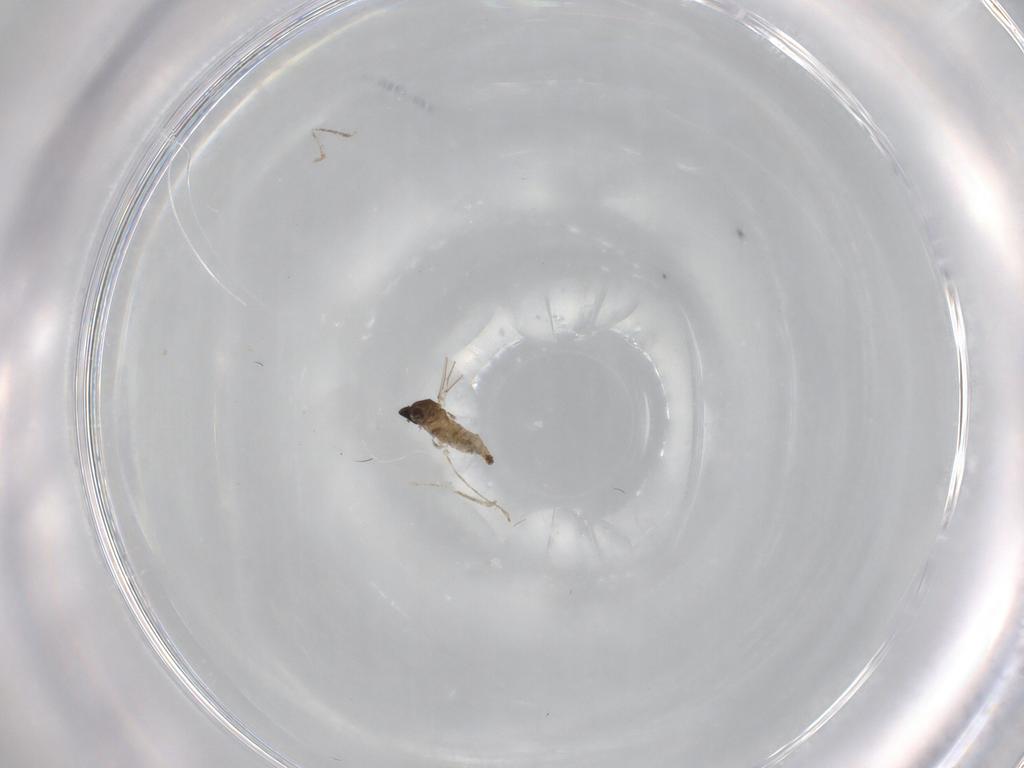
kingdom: Animalia
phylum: Arthropoda
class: Insecta
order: Diptera
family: Cecidomyiidae
